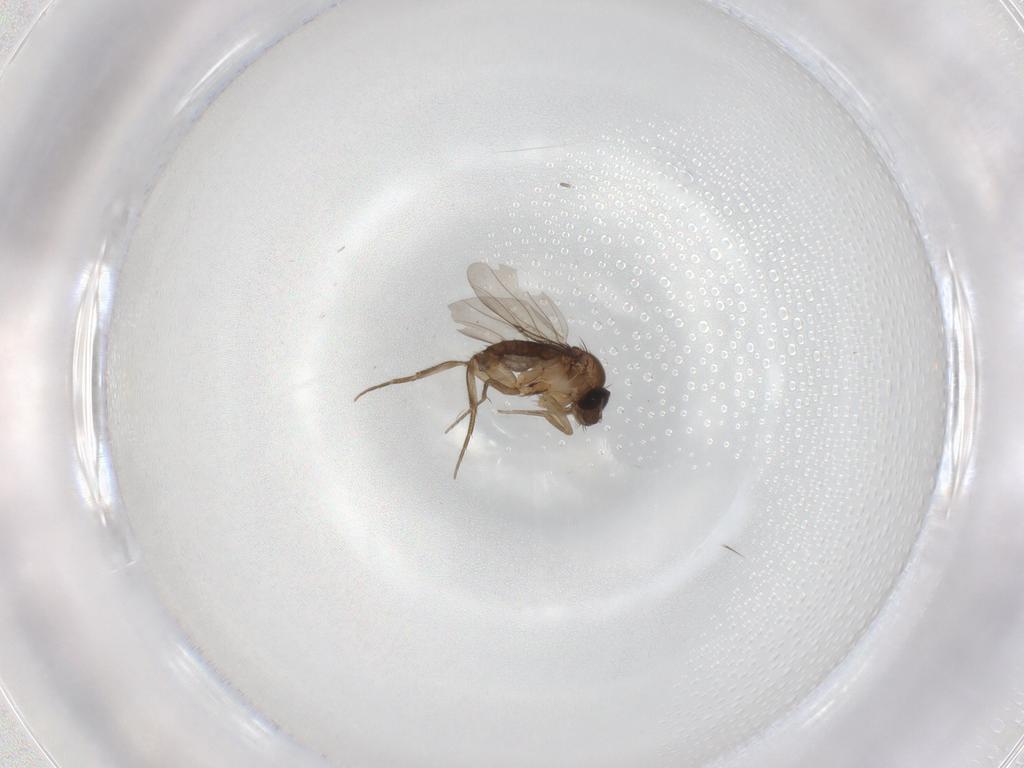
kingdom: Animalia
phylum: Arthropoda
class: Insecta
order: Diptera
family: Phoridae
